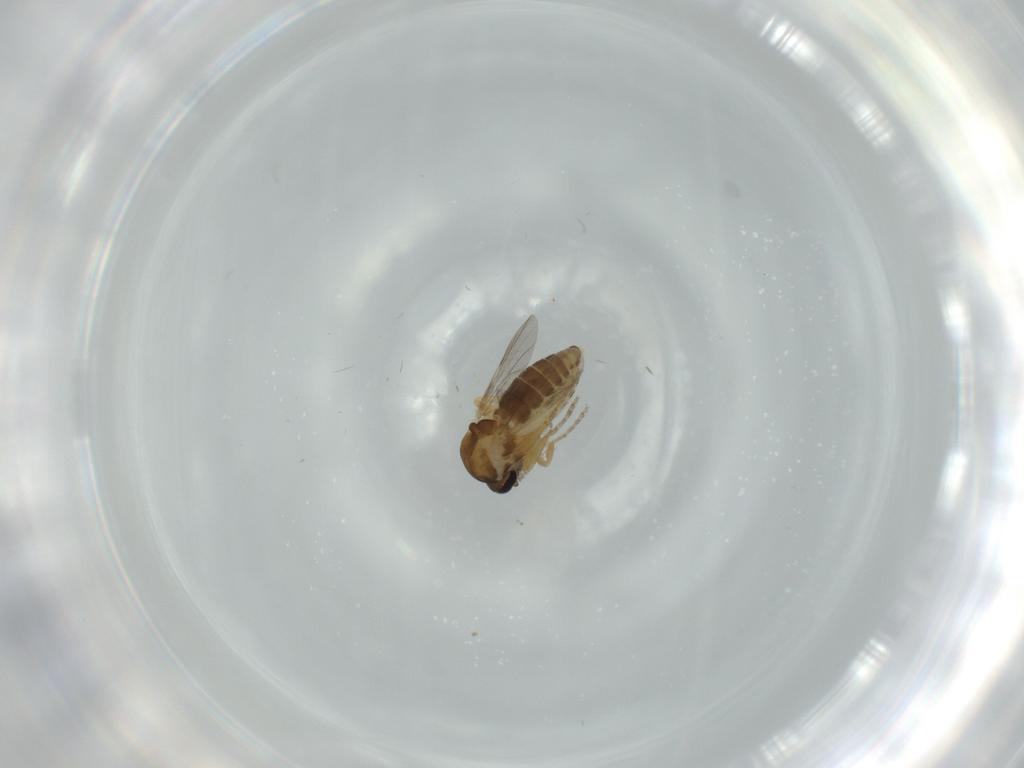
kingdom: Animalia
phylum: Arthropoda
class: Insecta
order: Diptera
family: Ceratopogonidae
